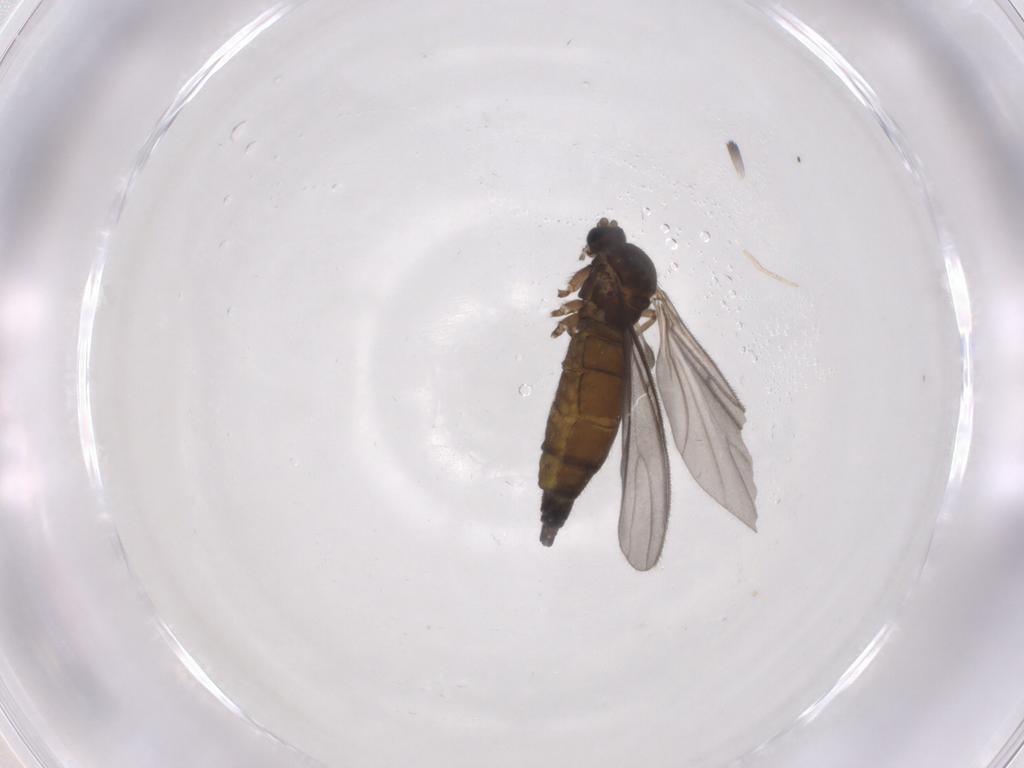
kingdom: Animalia
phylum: Arthropoda
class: Insecta
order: Diptera
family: Sciaridae
